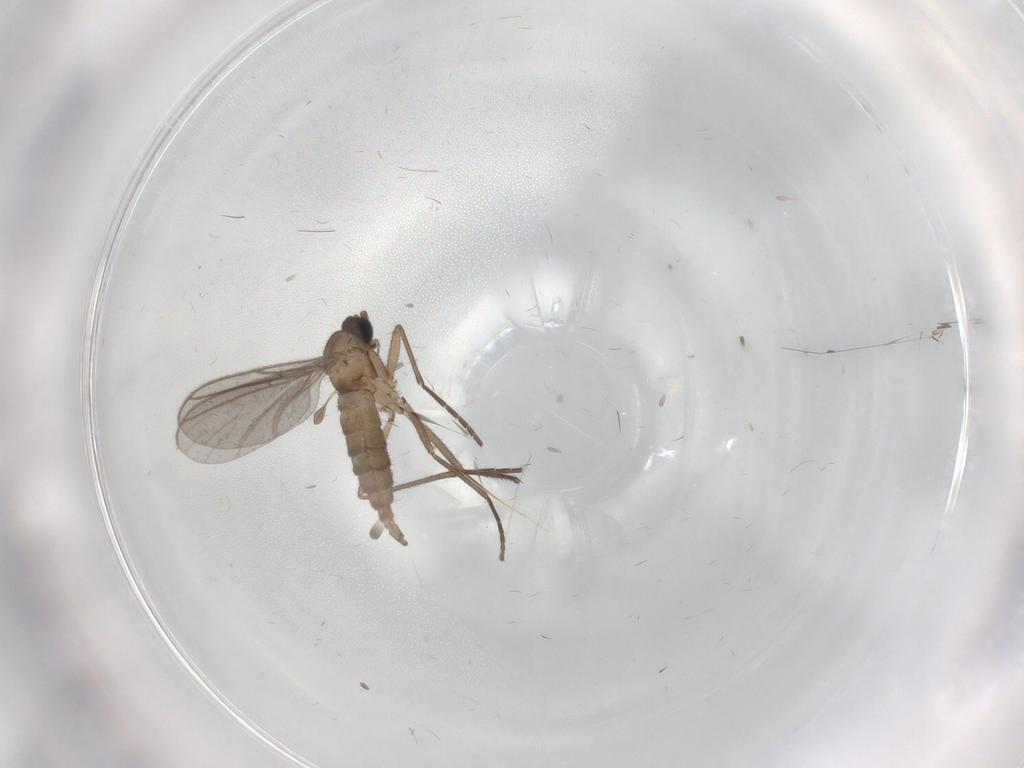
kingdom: Animalia
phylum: Arthropoda
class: Insecta
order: Diptera
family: Sciaridae
